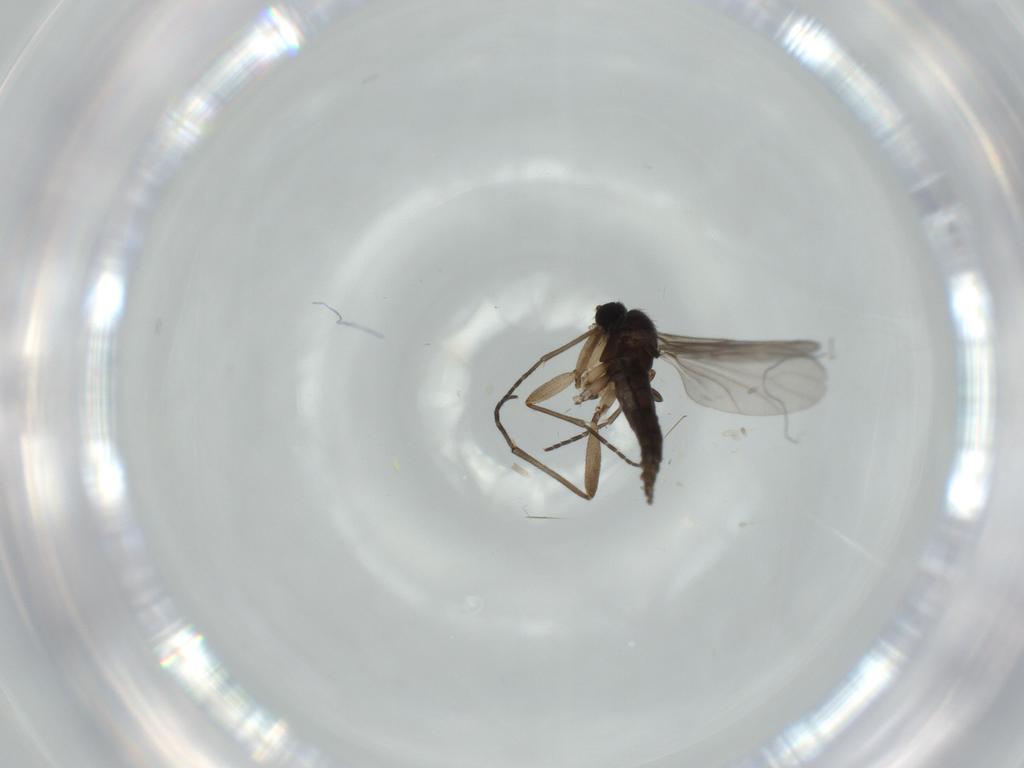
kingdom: Animalia
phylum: Arthropoda
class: Insecta
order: Diptera
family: Sciaridae
